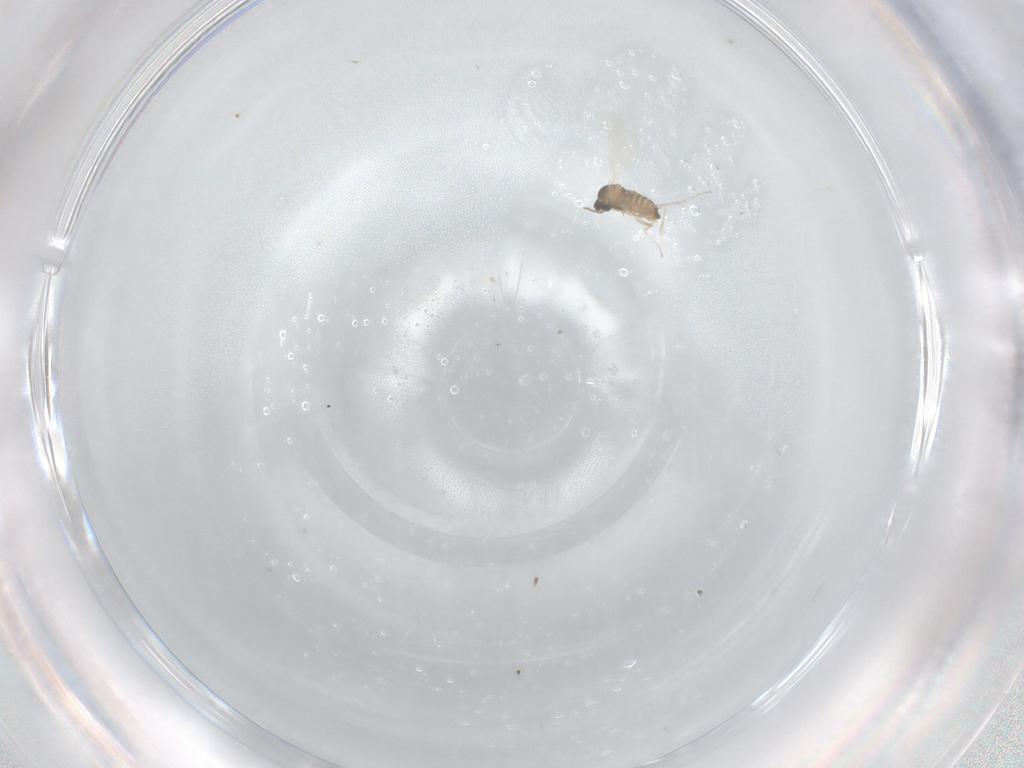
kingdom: Animalia
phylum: Arthropoda
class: Insecta
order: Diptera
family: Cecidomyiidae
